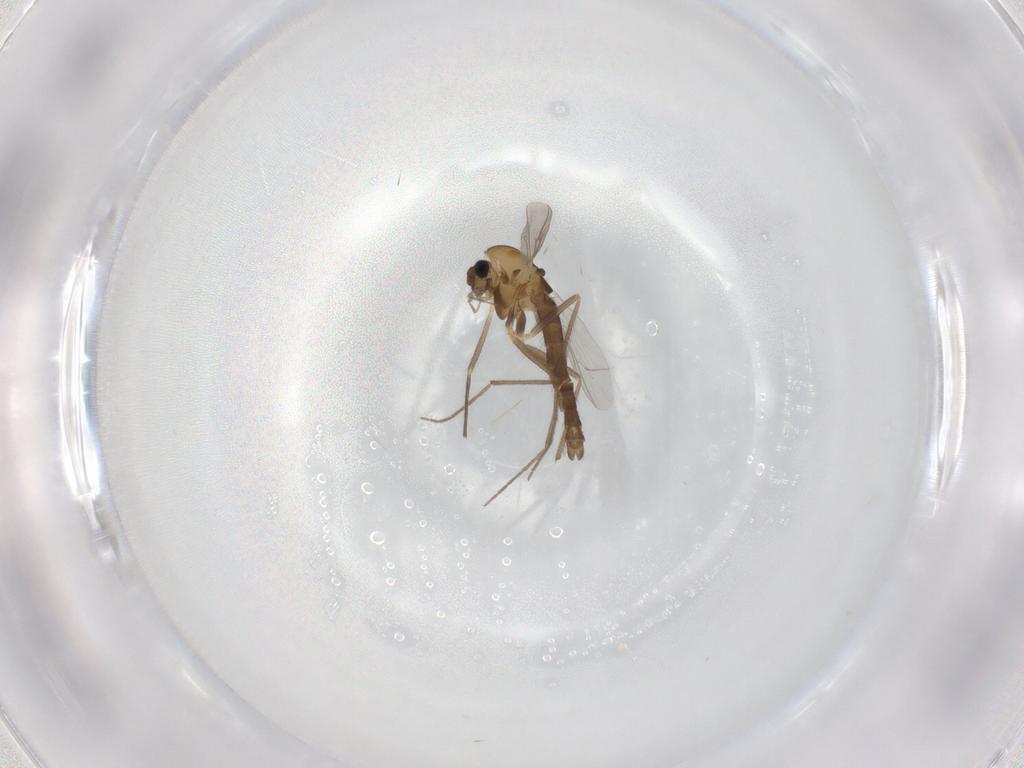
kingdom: Animalia
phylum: Arthropoda
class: Insecta
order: Diptera
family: Chironomidae
